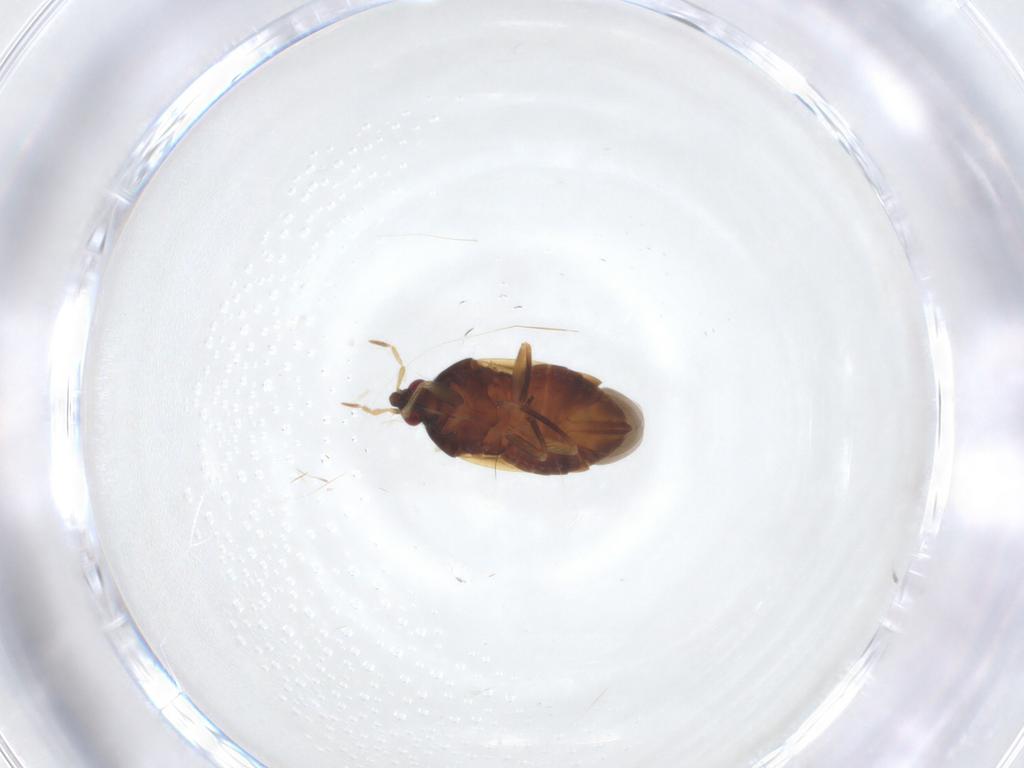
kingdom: Animalia
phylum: Arthropoda
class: Insecta
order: Hemiptera
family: Anthocoridae
